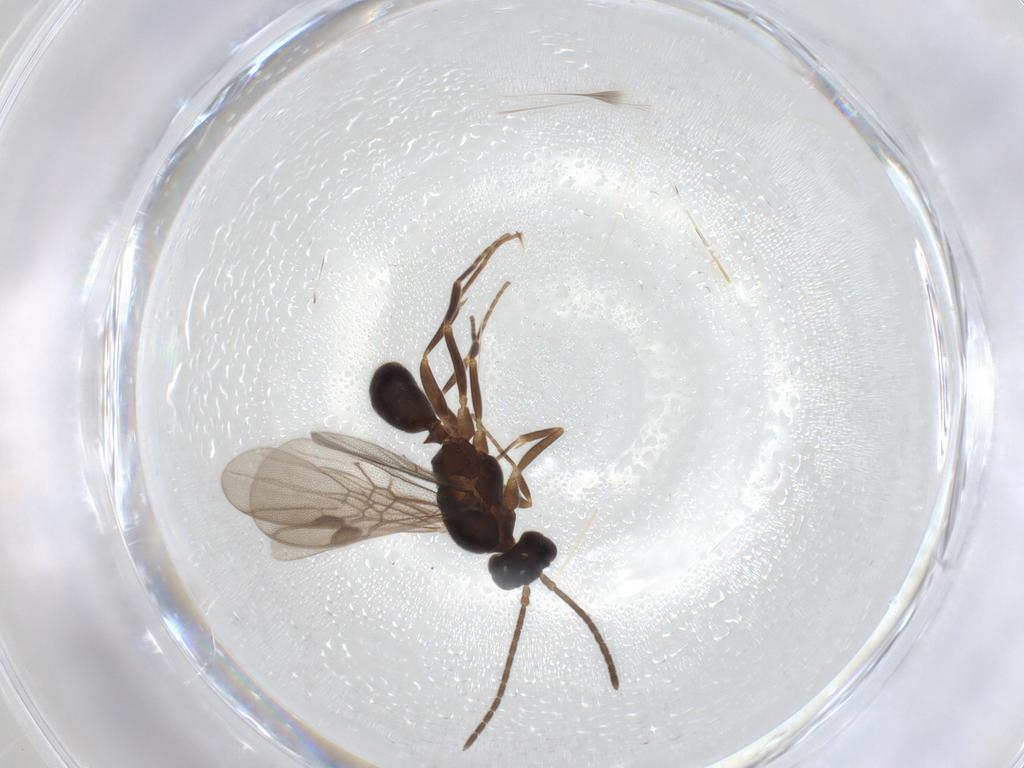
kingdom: Animalia
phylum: Arthropoda
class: Insecta
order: Hymenoptera
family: Formicidae
